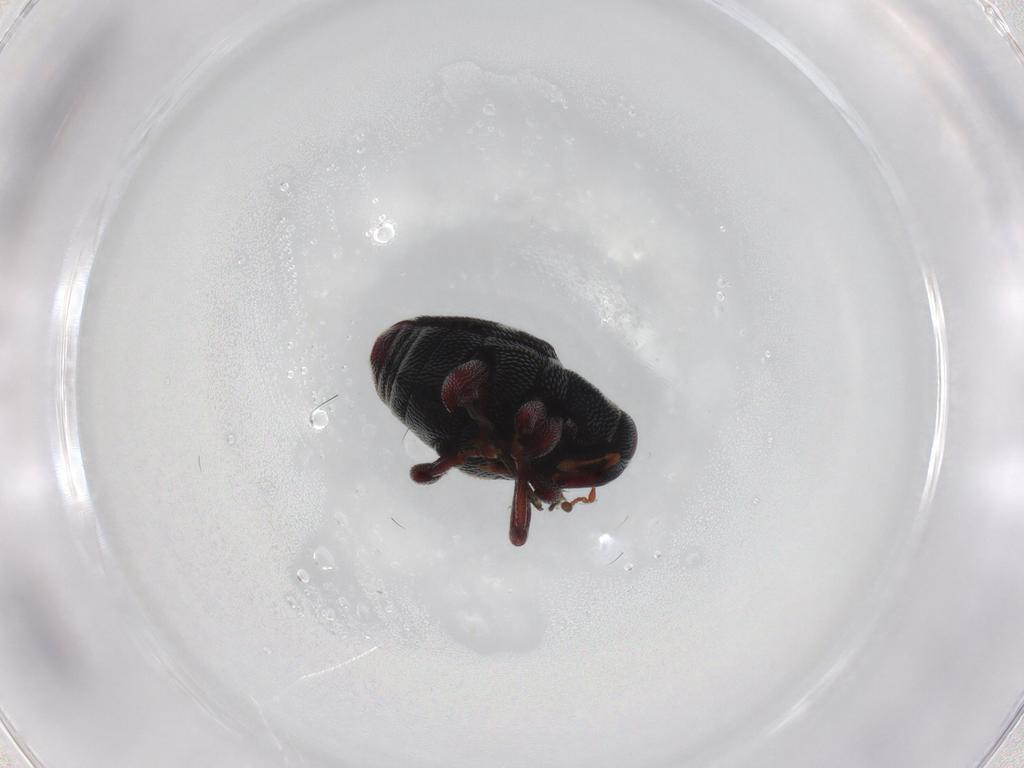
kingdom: Animalia
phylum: Arthropoda
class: Insecta
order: Coleoptera
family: Curculionidae
